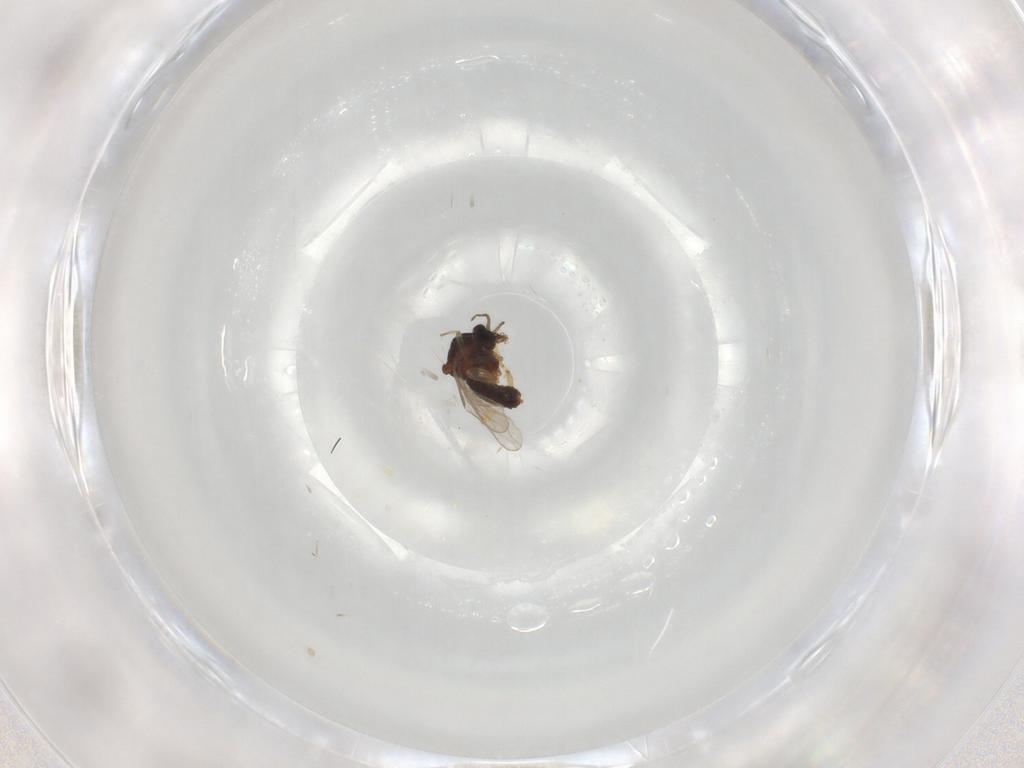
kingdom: Animalia
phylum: Arthropoda
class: Insecta
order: Diptera
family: Ceratopogonidae
